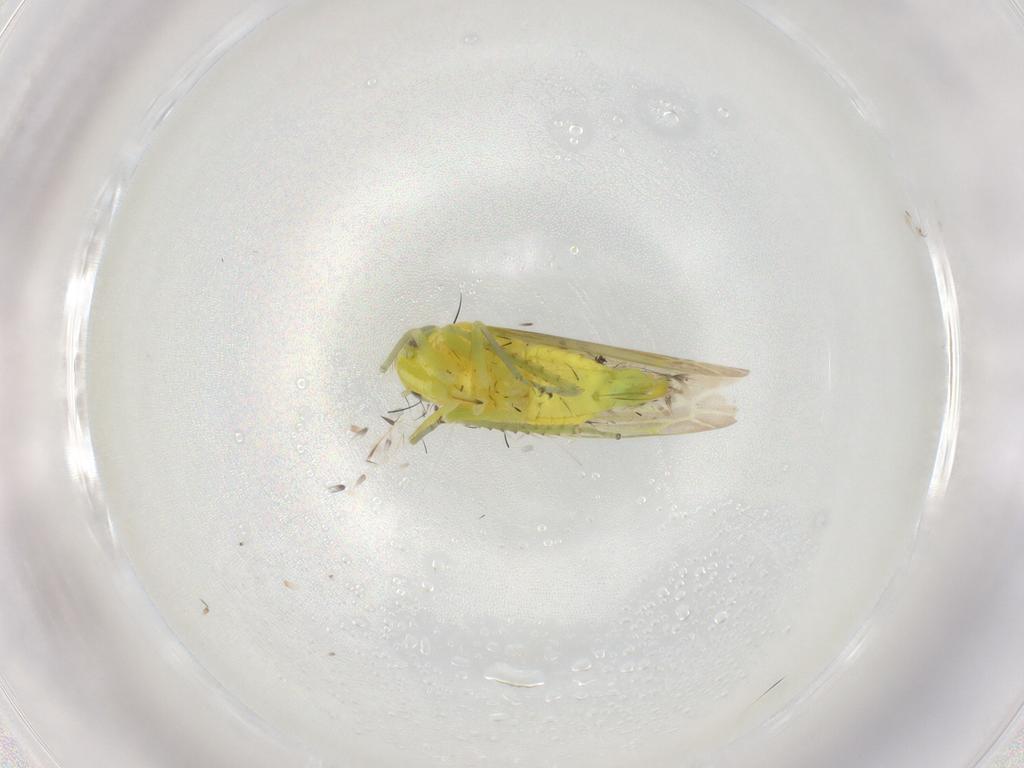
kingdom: Animalia
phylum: Arthropoda
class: Insecta
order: Hemiptera
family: Cicadellidae
